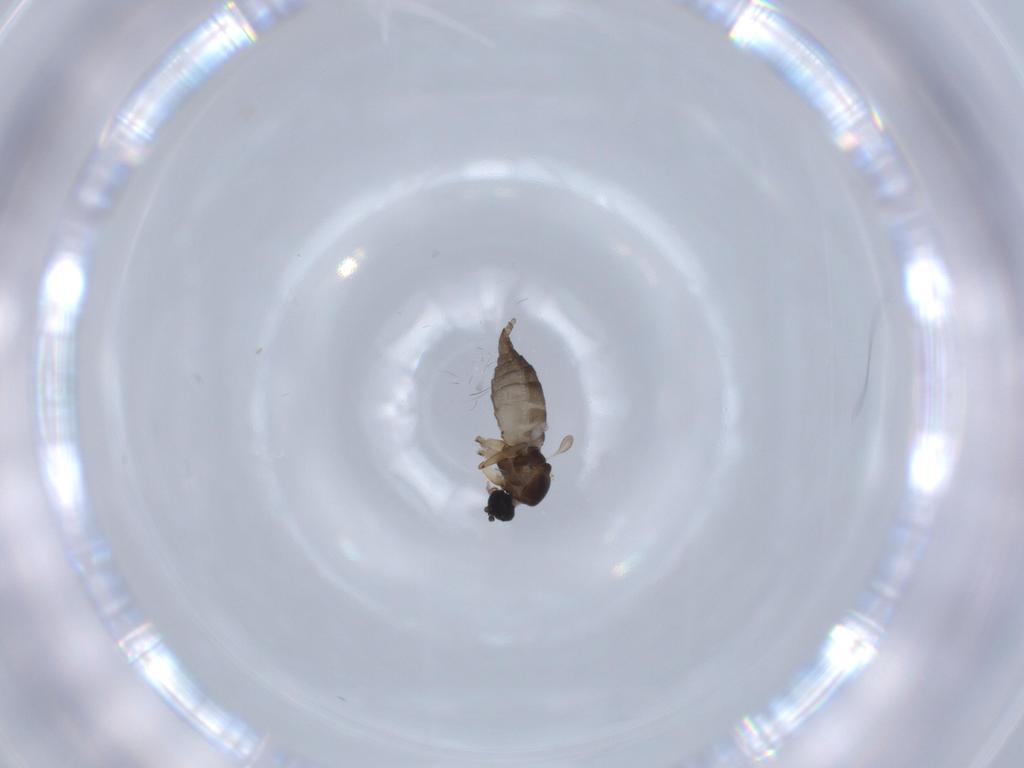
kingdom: Animalia
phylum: Arthropoda
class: Insecta
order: Diptera
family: Sciaridae
